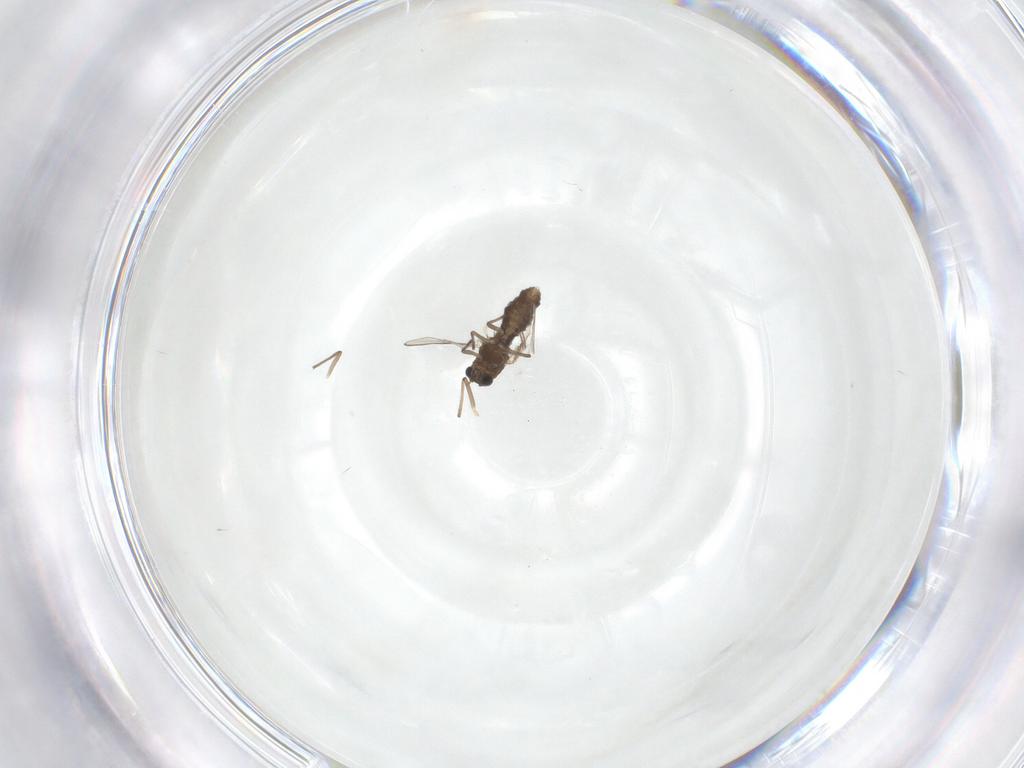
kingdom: Animalia
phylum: Arthropoda
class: Insecta
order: Diptera
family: Chironomidae
